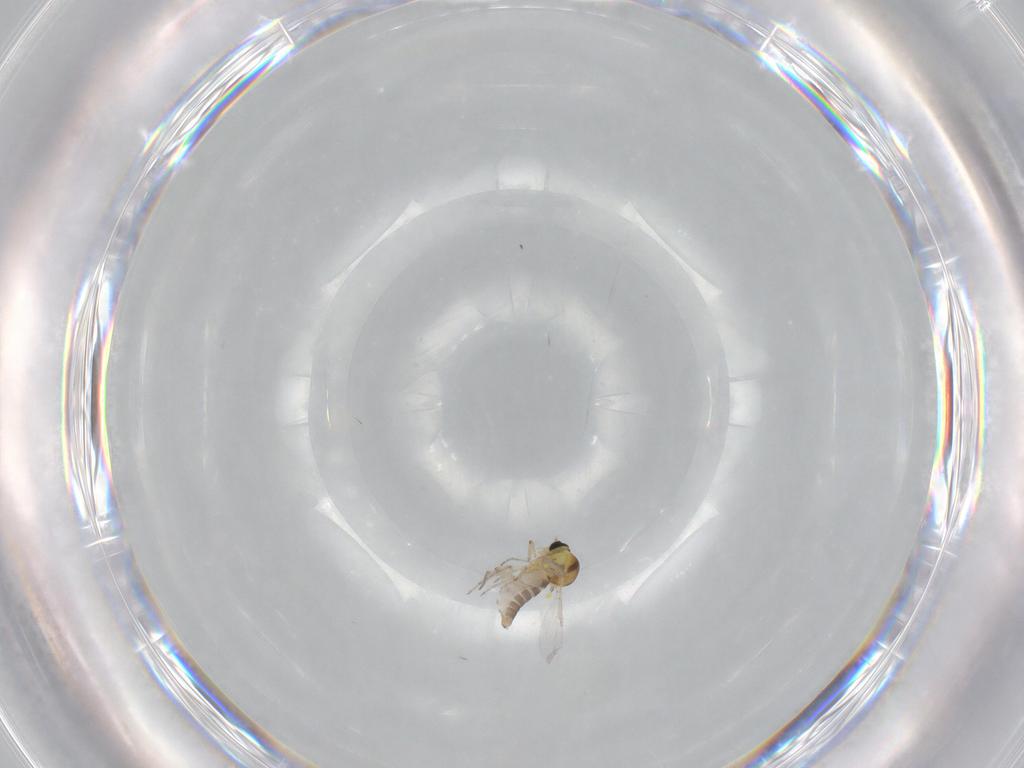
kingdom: Animalia
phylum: Arthropoda
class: Insecta
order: Diptera
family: Ceratopogonidae
